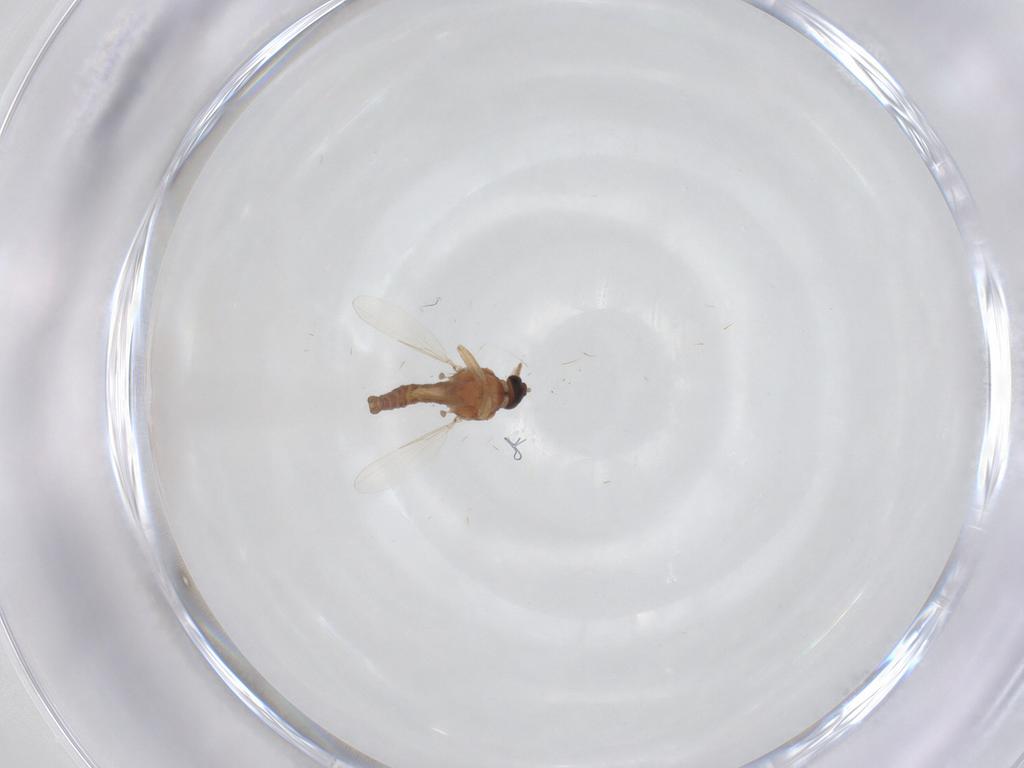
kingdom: Animalia
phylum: Arthropoda
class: Insecta
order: Diptera
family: Ceratopogonidae
